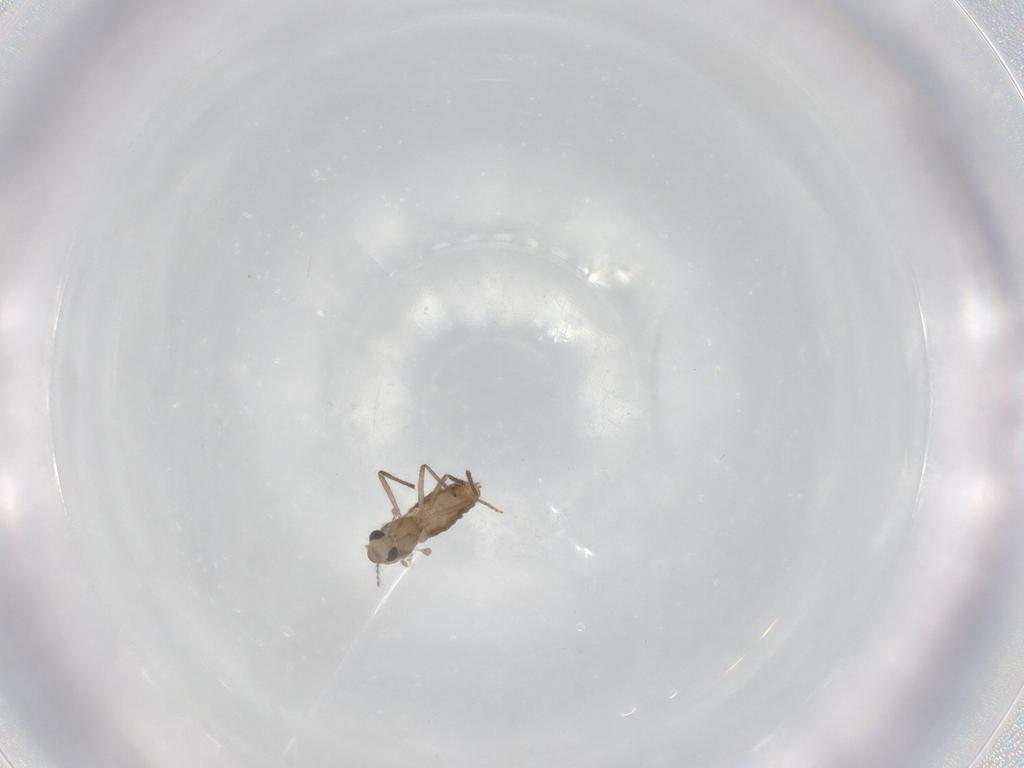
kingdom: Animalia
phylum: Arthropoda
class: Insecta
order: Diptera
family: Chironomidae
